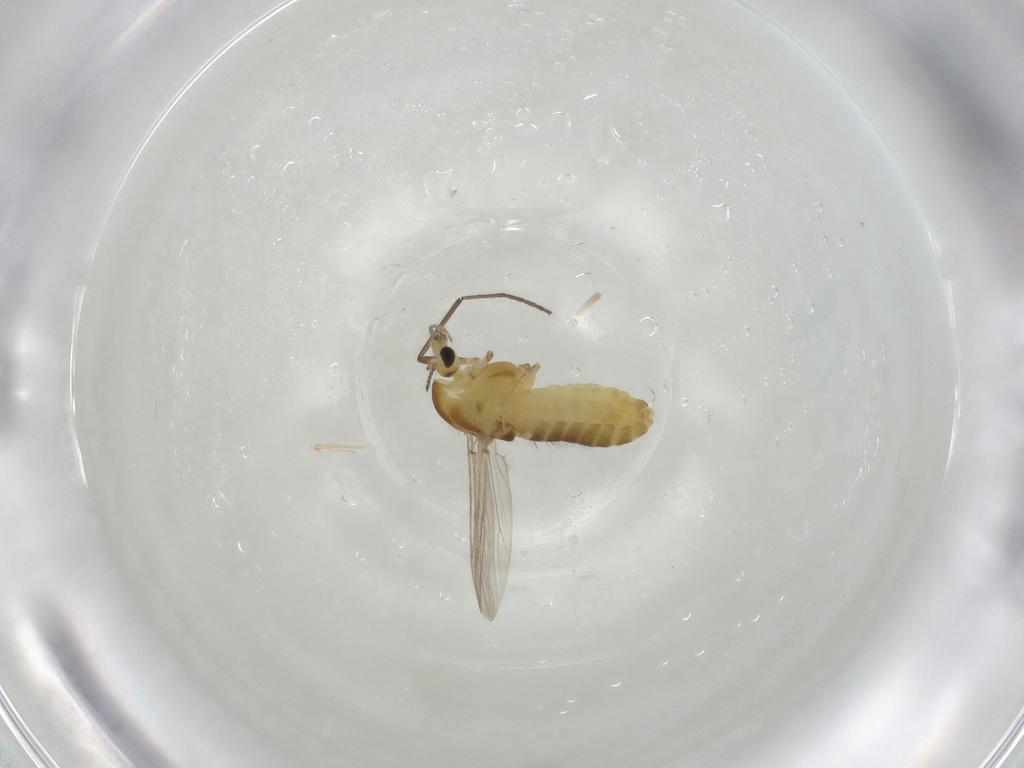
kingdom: Animalia
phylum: Arthropoda
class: Insecta
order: Diptera
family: Chironomidae
